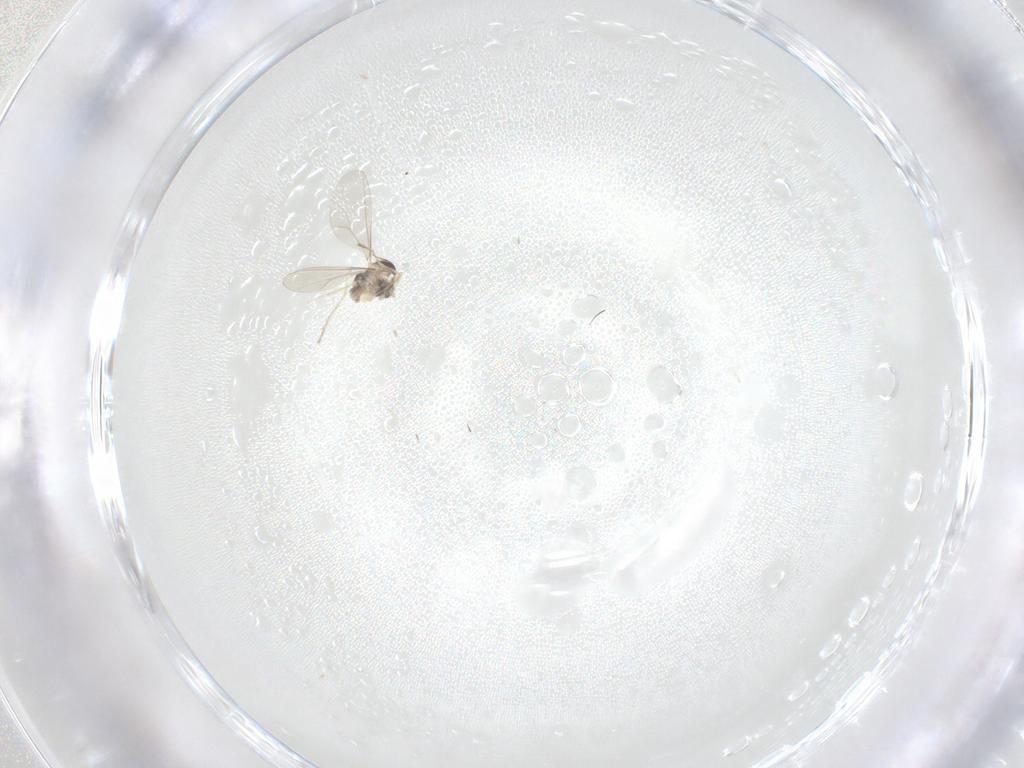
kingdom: Animalia
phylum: Arthropoda
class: Insecta
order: Diptera
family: Cecidomyiidae
